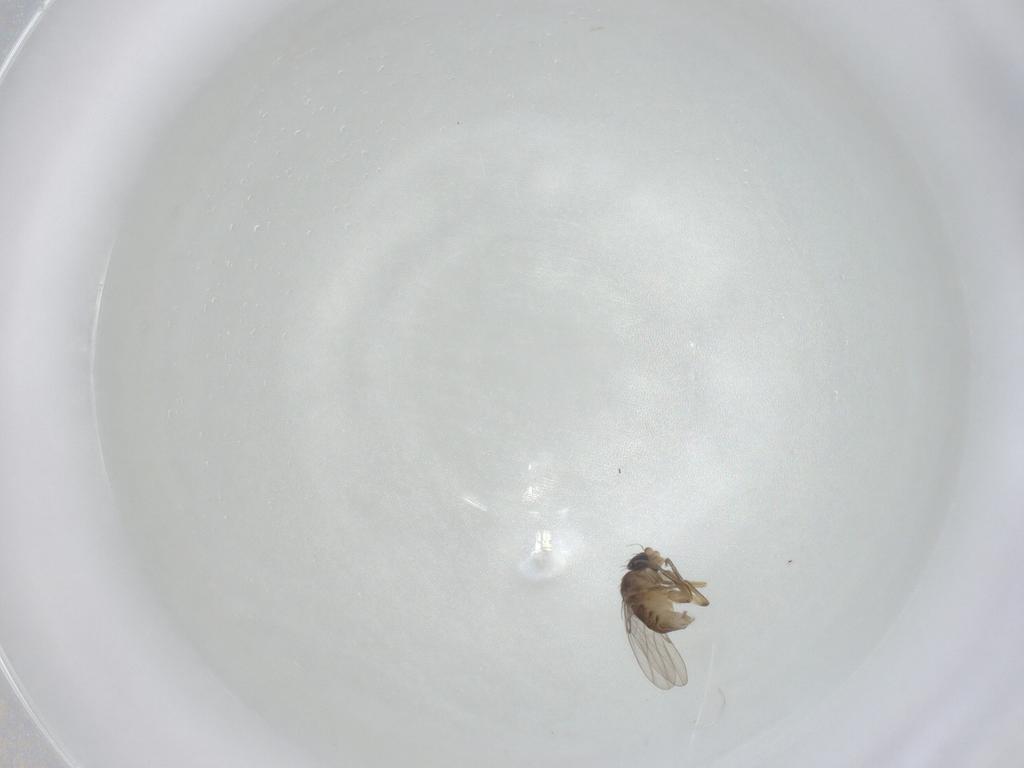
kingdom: Animalia
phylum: Arthropoda
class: Insecta
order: Diptera
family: Phoridae
